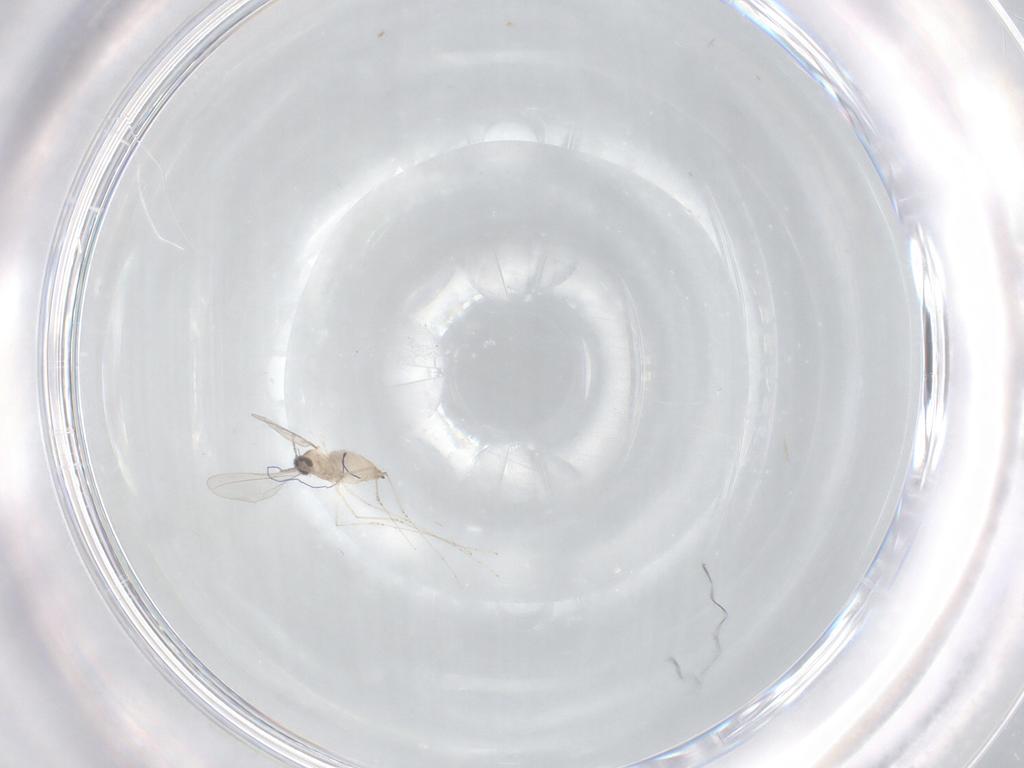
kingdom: Animalia
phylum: Arthropoda
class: Insecta
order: Diptera
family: Cecidomyiidae
